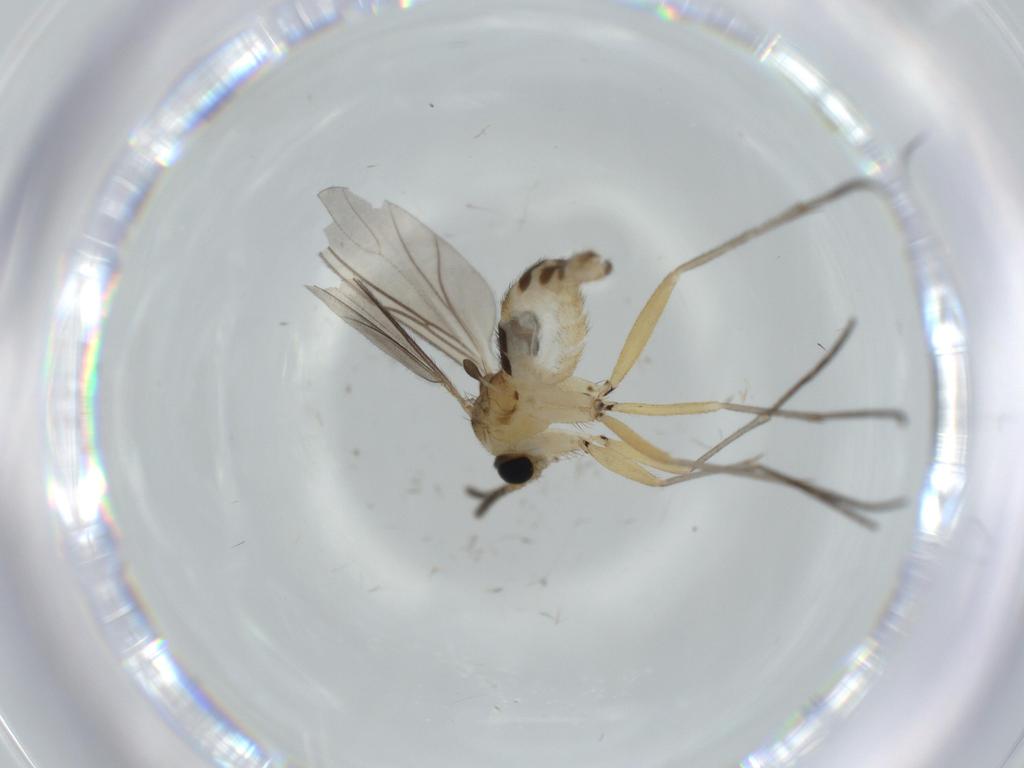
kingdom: Animalia
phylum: Arthropoda
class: Insecta
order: Diptera
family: Sciaridae
